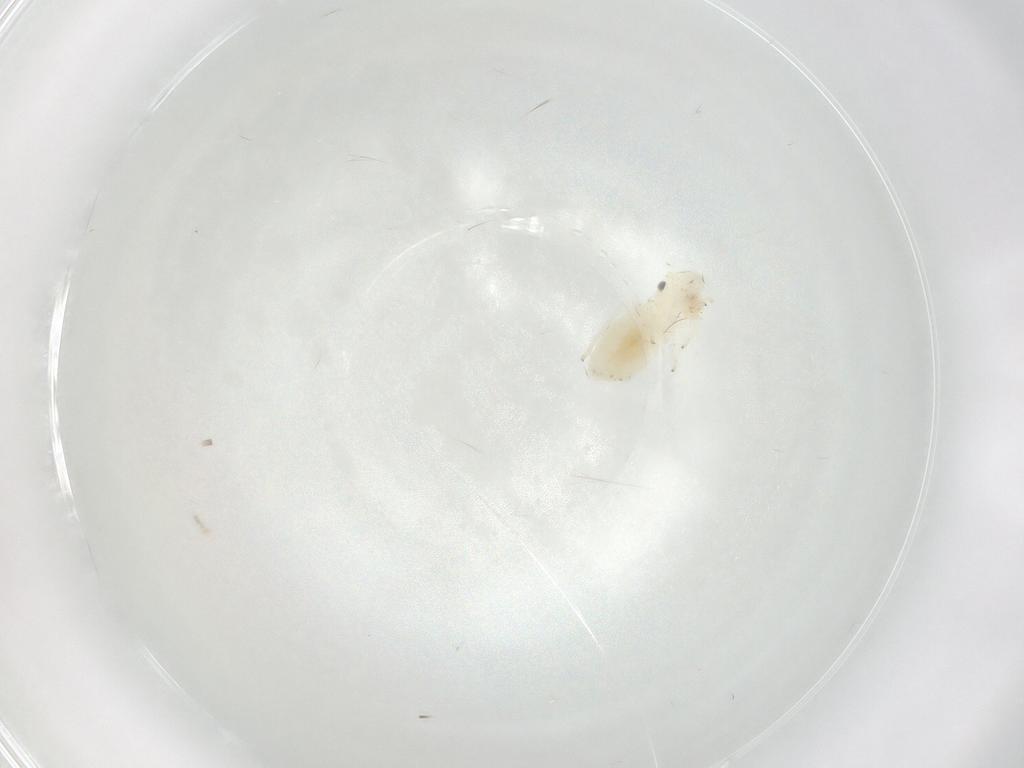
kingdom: Animalia
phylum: Arthropoda
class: Insecta
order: Psocodea
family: Stenopsocidae
